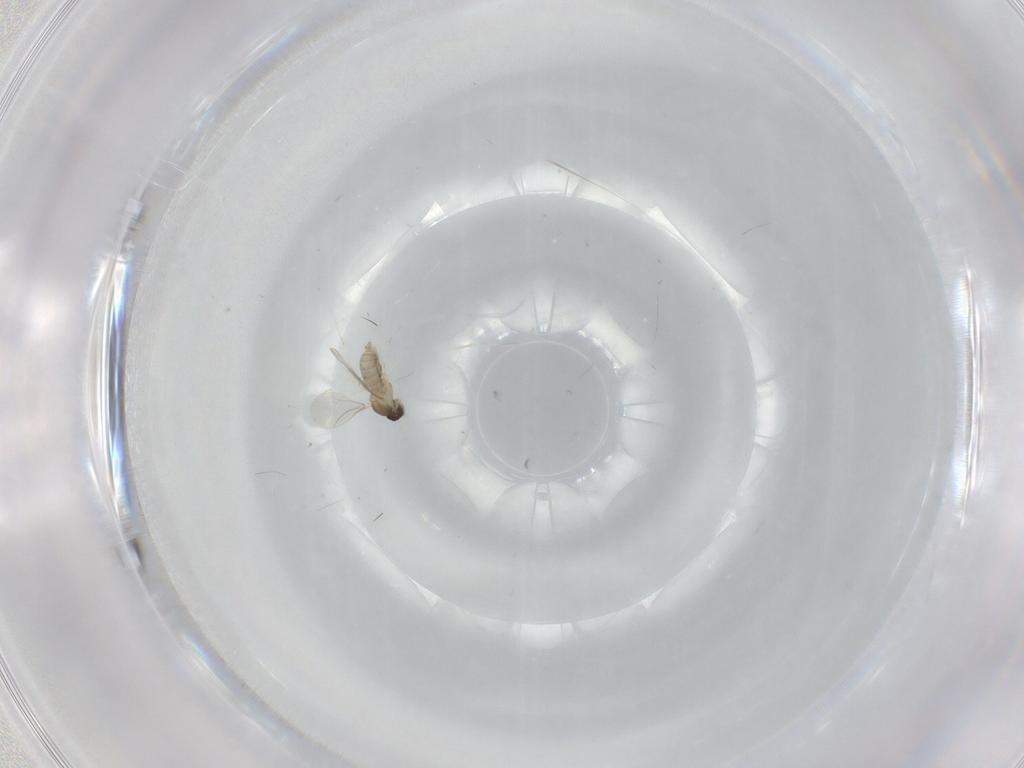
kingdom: Animalia
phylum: Arthropoda
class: Insecta
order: Diptera
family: Cecidomyiidae
